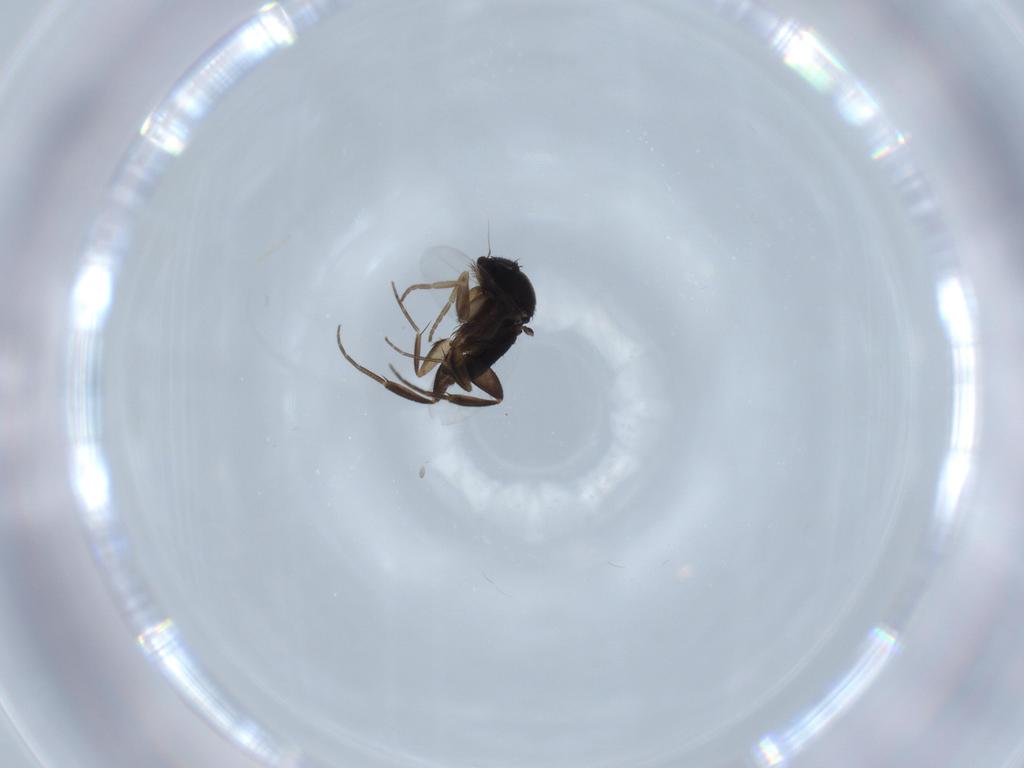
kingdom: Animalia
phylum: Arthropoda
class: Insecta
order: Diptera
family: Phoridae
